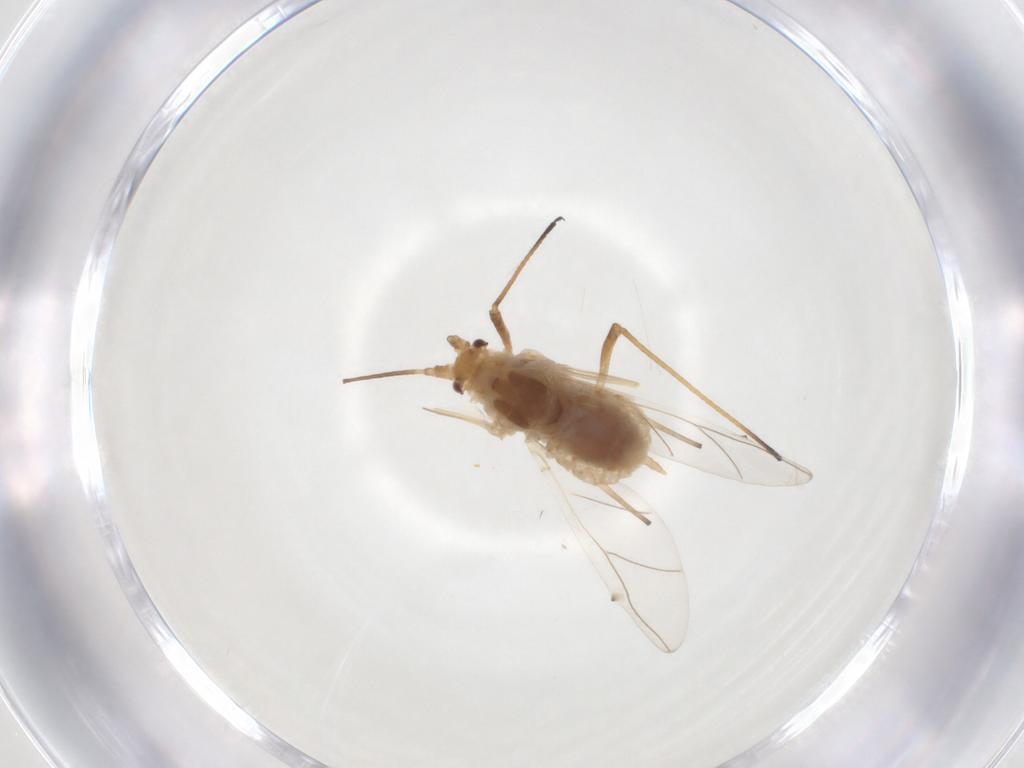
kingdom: Animalia
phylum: Arthropoda
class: Insecta
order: Hemiptera
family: Aphididae
